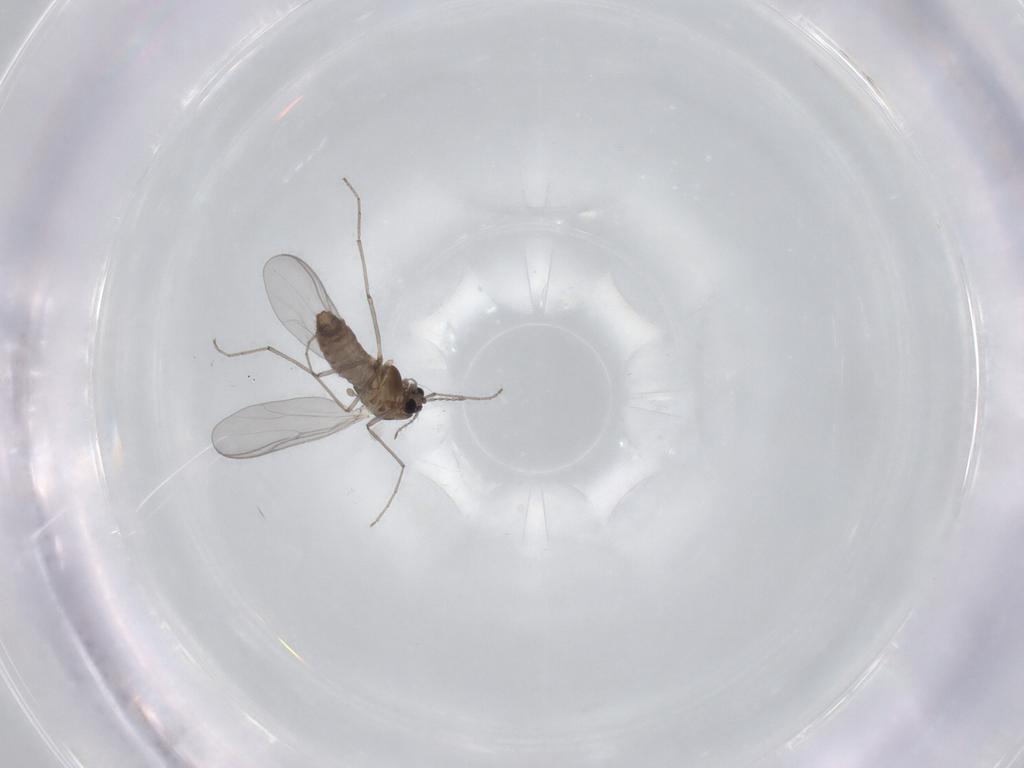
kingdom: Animalia
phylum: Arthropoda
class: Insecta
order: Diptera
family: Chironomidae
